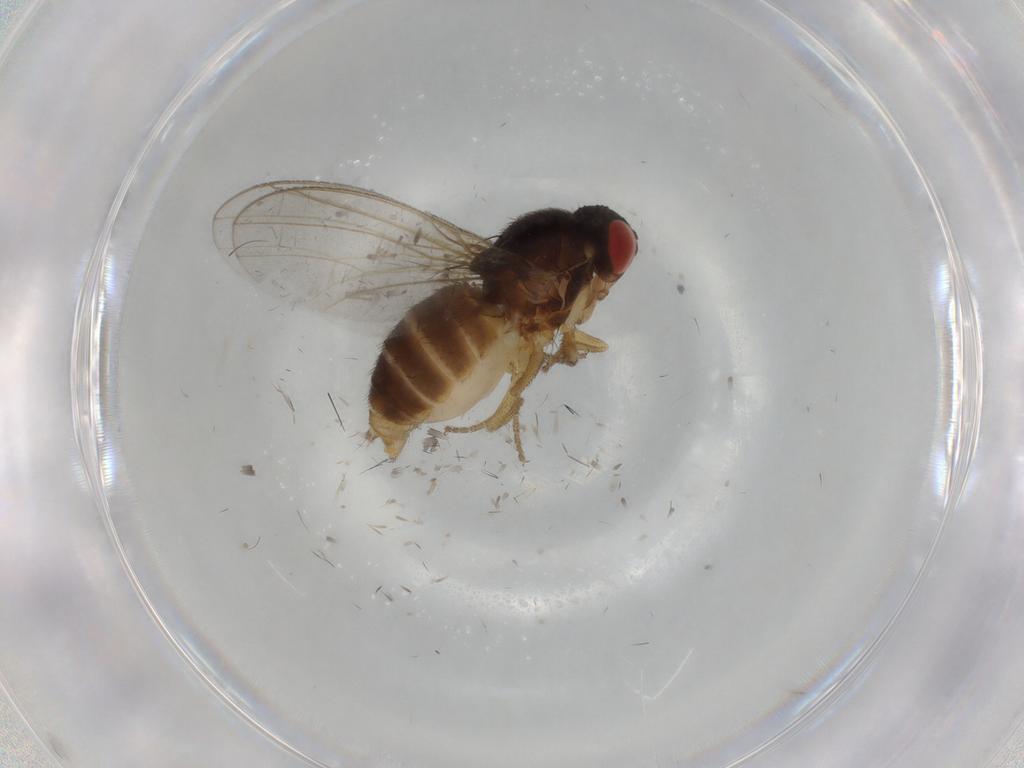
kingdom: Animalia
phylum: Arthropoda
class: Insecta
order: Diptera
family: Drosophilidae
